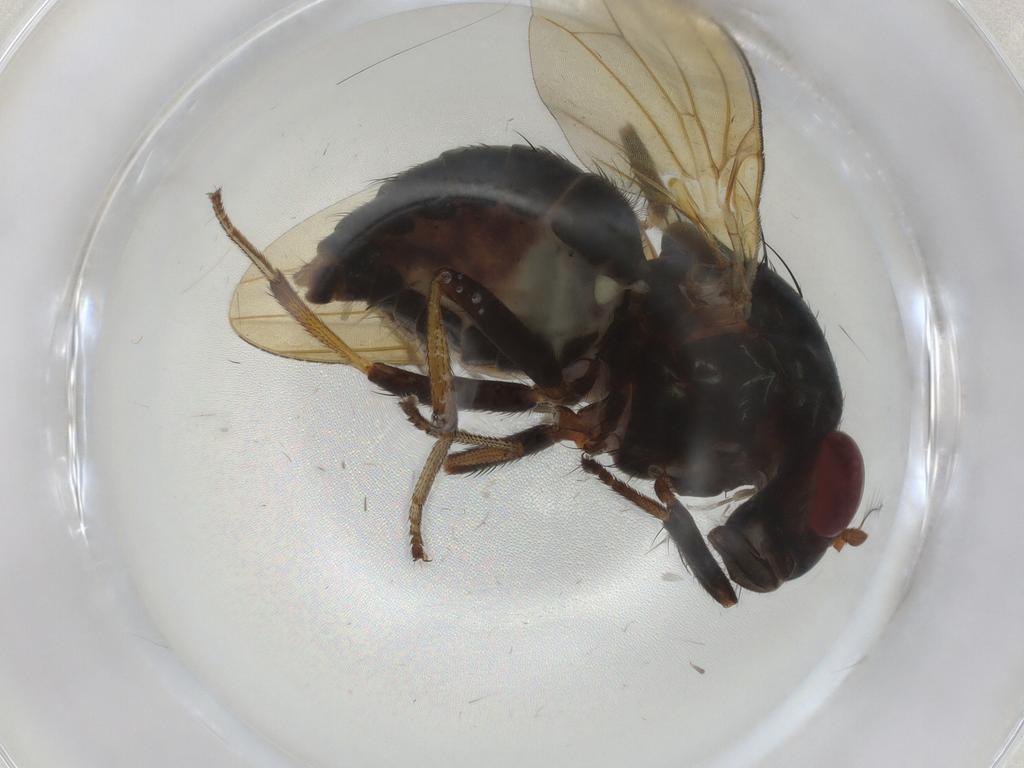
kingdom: Animalia
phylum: Arthropoda
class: Insecta
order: Diptera
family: Lauxaniidae
